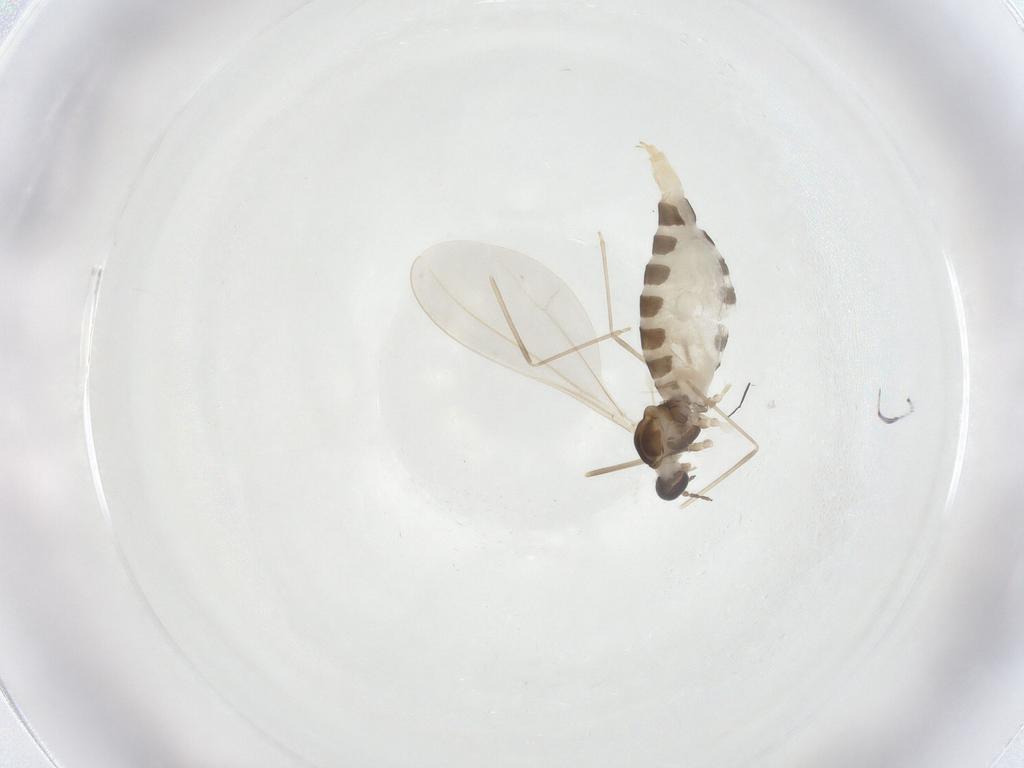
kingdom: Animalia
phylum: Arthropoda
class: Insecta
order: Diptera
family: Cecidomyiidae
